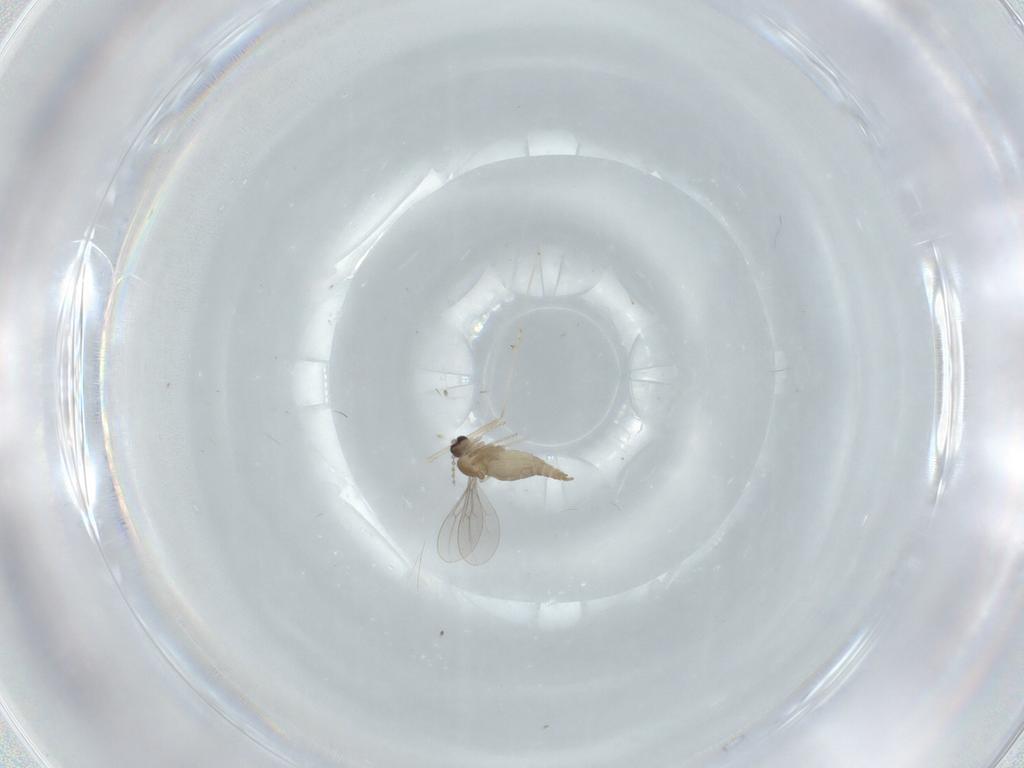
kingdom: Animalia
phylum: Arthropoda
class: Insecta
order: Diptera
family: Cecidomyiidae
